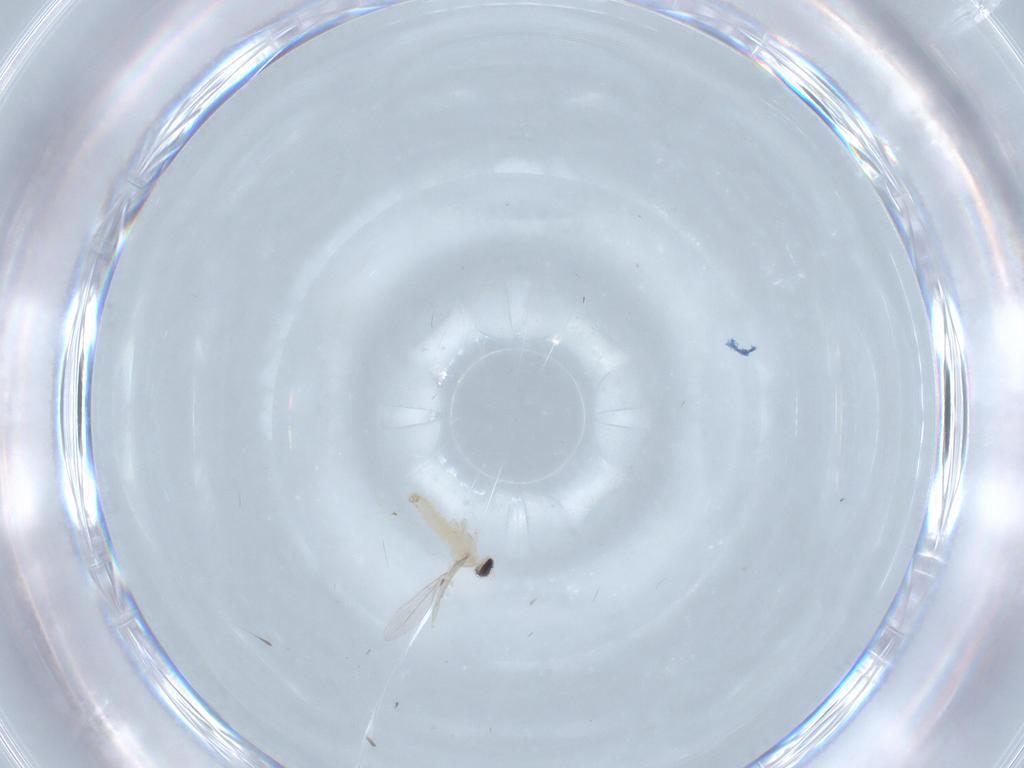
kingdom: Animalia
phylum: Arthropoda
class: Insecta
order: Diptera
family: Cecidomyiidae
